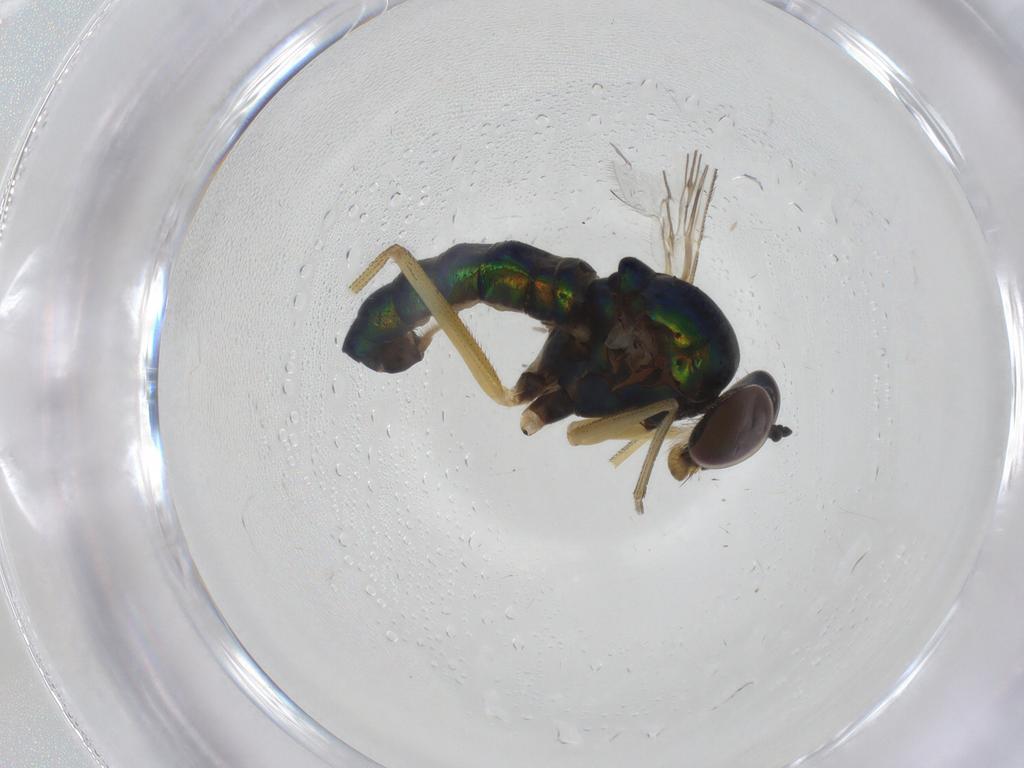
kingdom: Animalia
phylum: Arthropoda
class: Insecta
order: Diptera
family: Dolichopodidae
